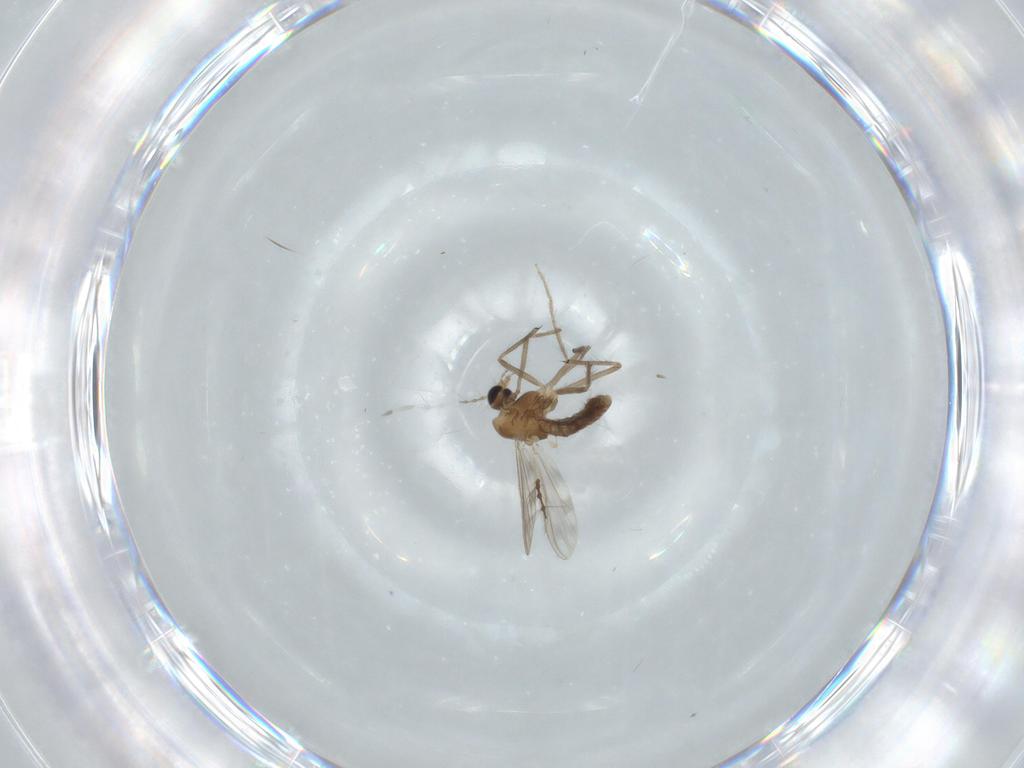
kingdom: Animalia
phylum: Arthropoda
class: Insecta
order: Diptera
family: Chironomidae
